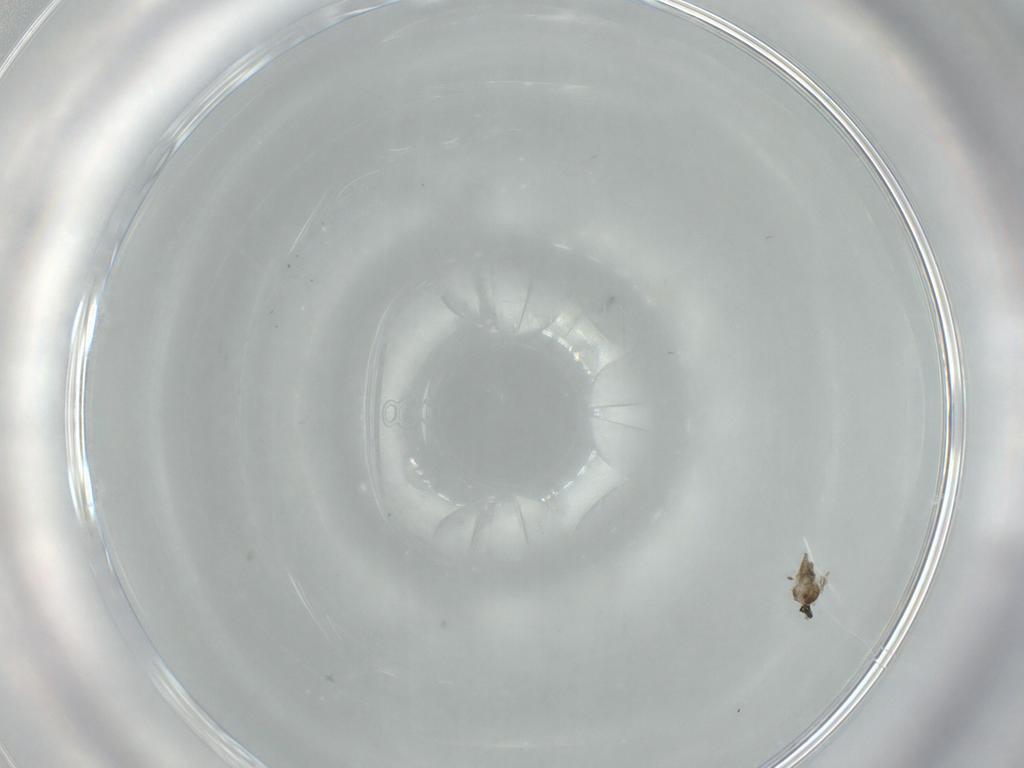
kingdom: Animalia
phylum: Arthropoda
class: Insecta
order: Diptera
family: Cecidomyiidae
